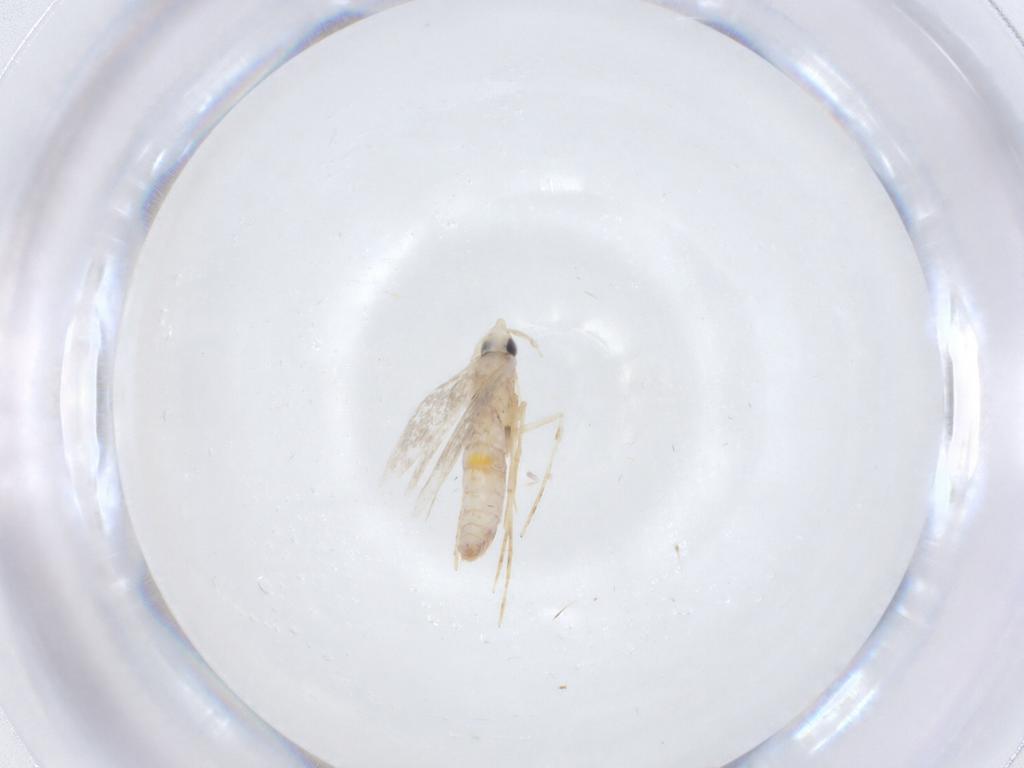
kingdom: Animalia
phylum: Arthropoda
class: Insecta
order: Lepidoptera
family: Tineidae
